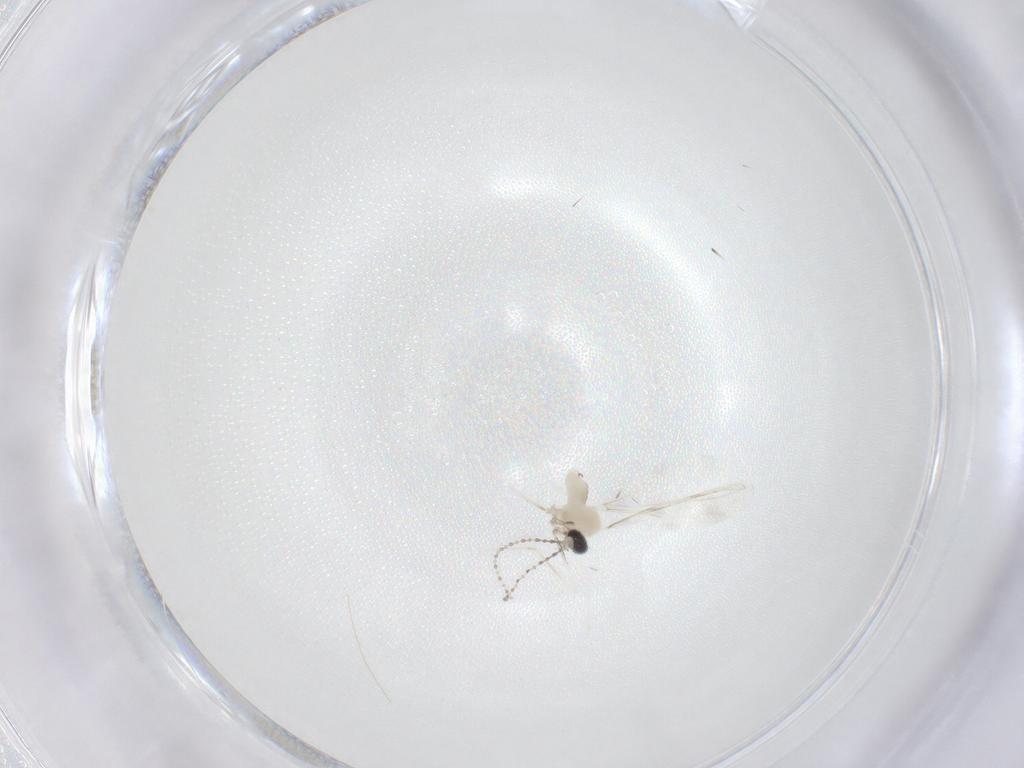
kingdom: Animalia
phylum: Arthropoda
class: Insecta
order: Diptera
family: Cecidomyiidae
